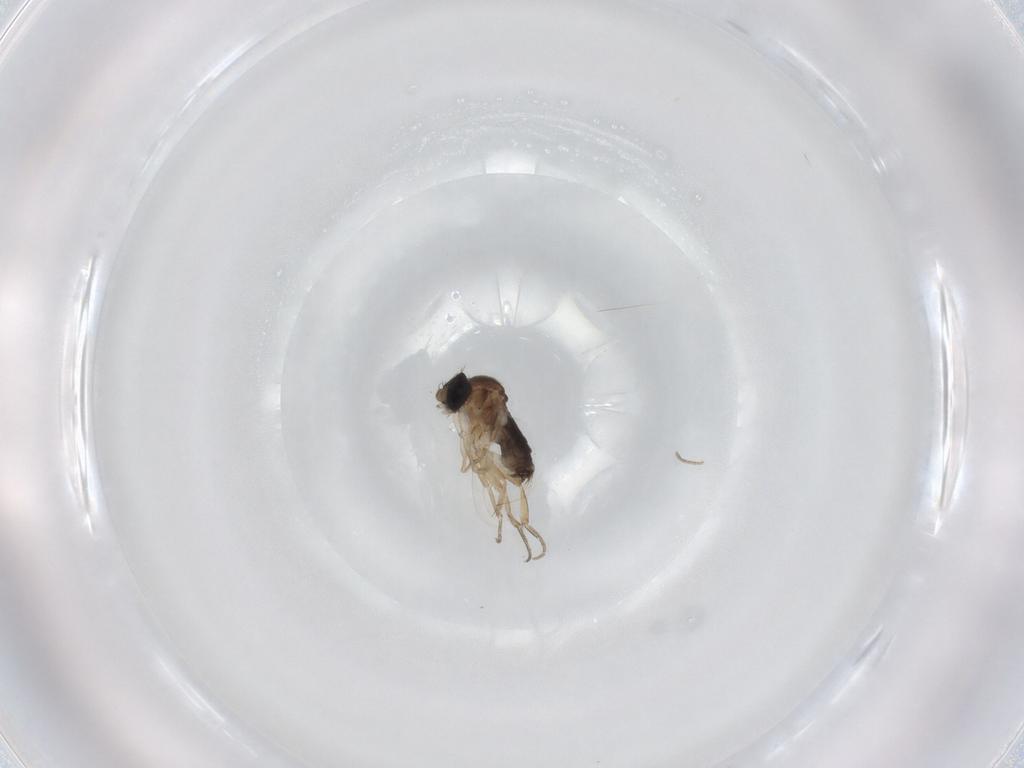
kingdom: Animalia
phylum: Arthropoda
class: Insecta
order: Diptera
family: Phoridae
